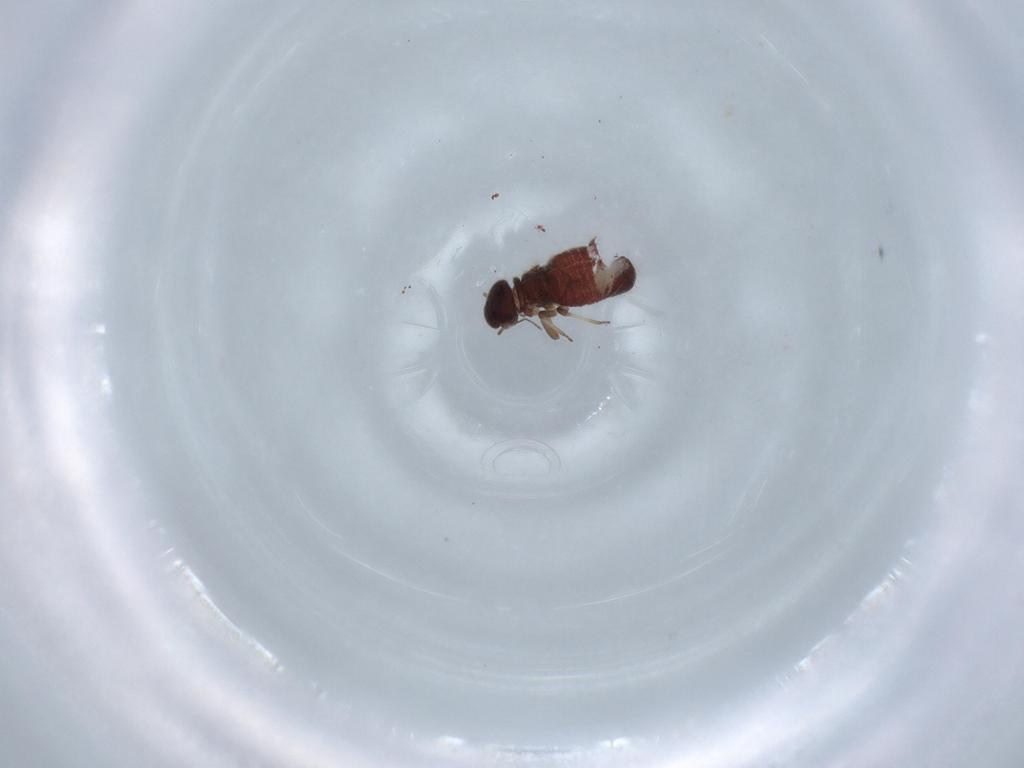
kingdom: Animalia
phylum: Arthropoda
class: Insecta
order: Psocodea
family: Archipsocidae
